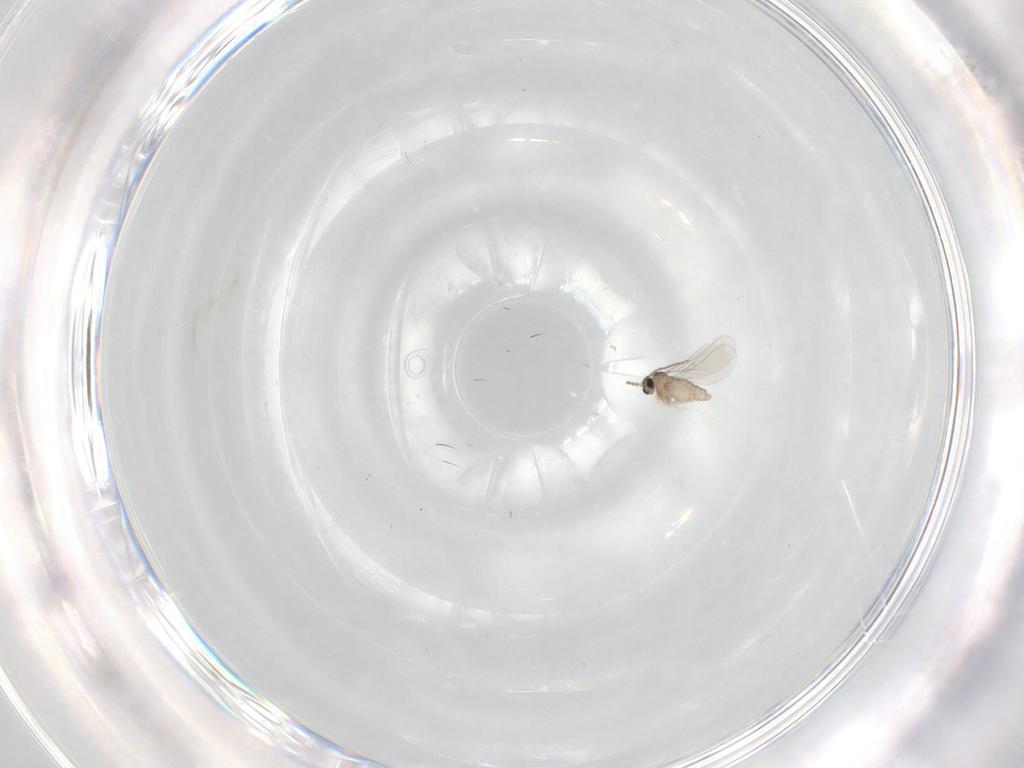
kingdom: Animalia
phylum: Arthropoda
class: Insecta
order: Diptera
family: Cecidomyiidae
